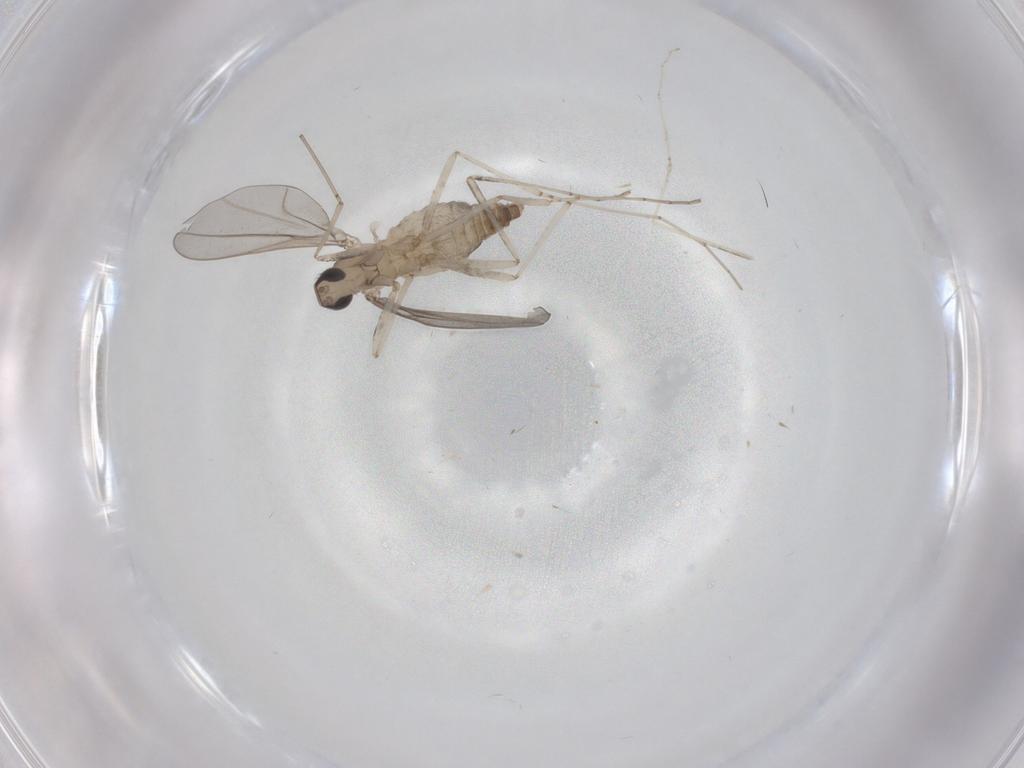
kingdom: Animalia
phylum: Arthropoda
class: Insecta
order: Diptera
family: Cecidomyiidae
